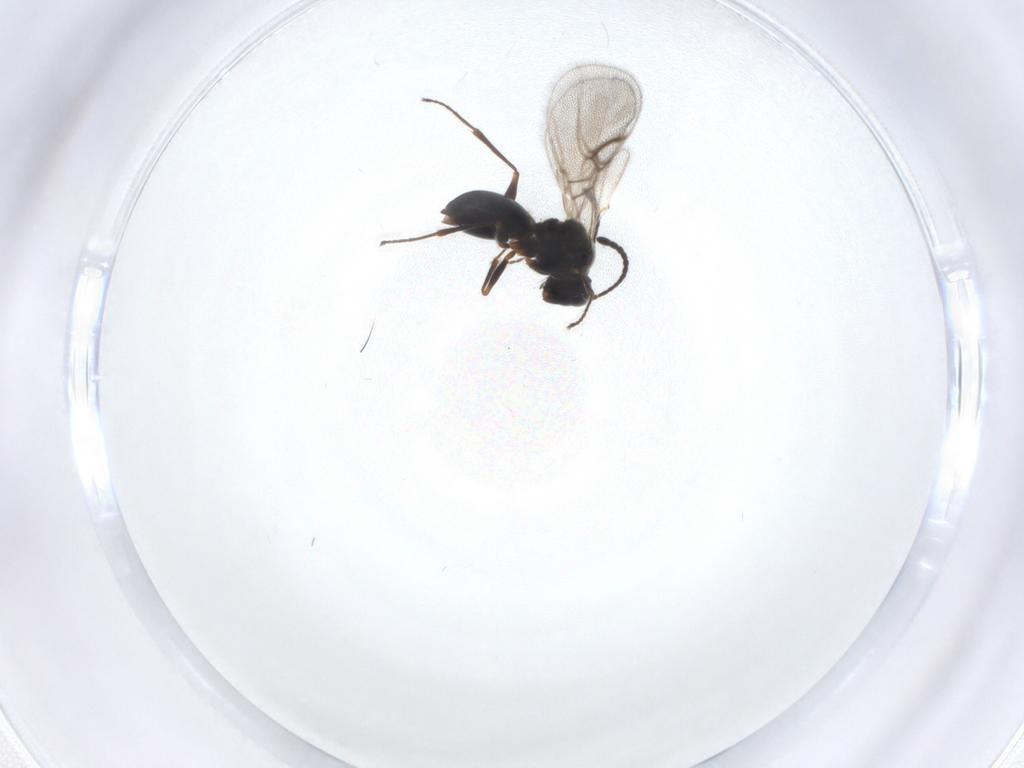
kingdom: Animalia
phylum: Arthropoda
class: Insecta
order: Hymenoptera
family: Figitidae
